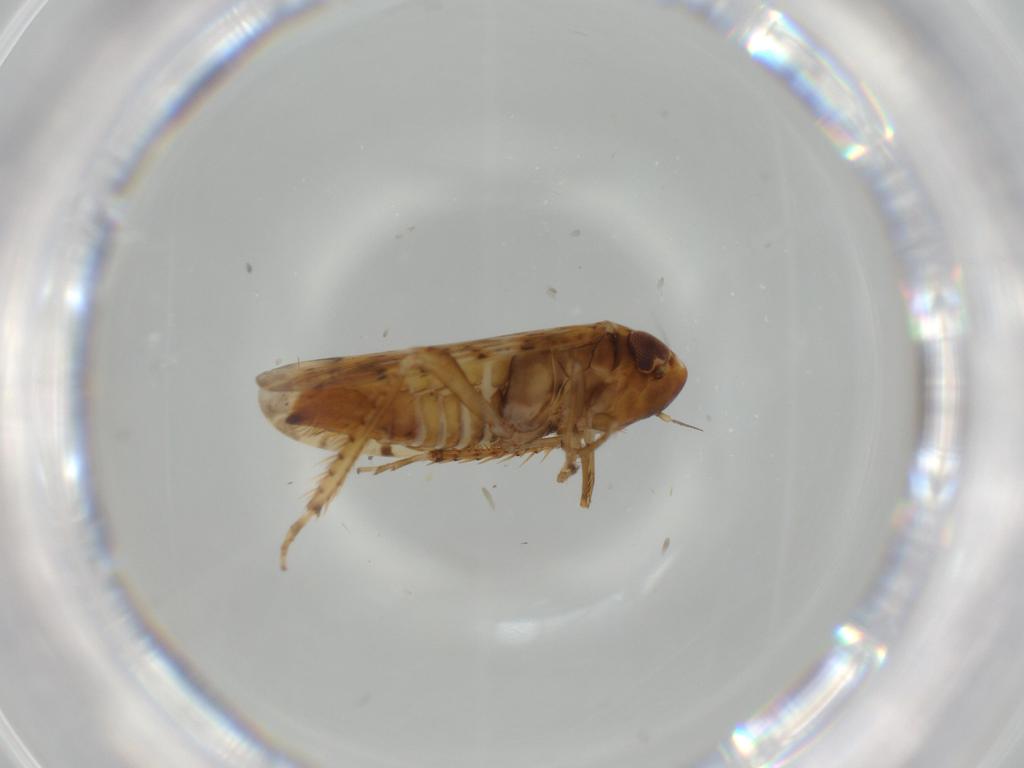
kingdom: Animalia
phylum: Arthropoda
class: Insecta
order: Hemiptera
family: Cicadellidae
